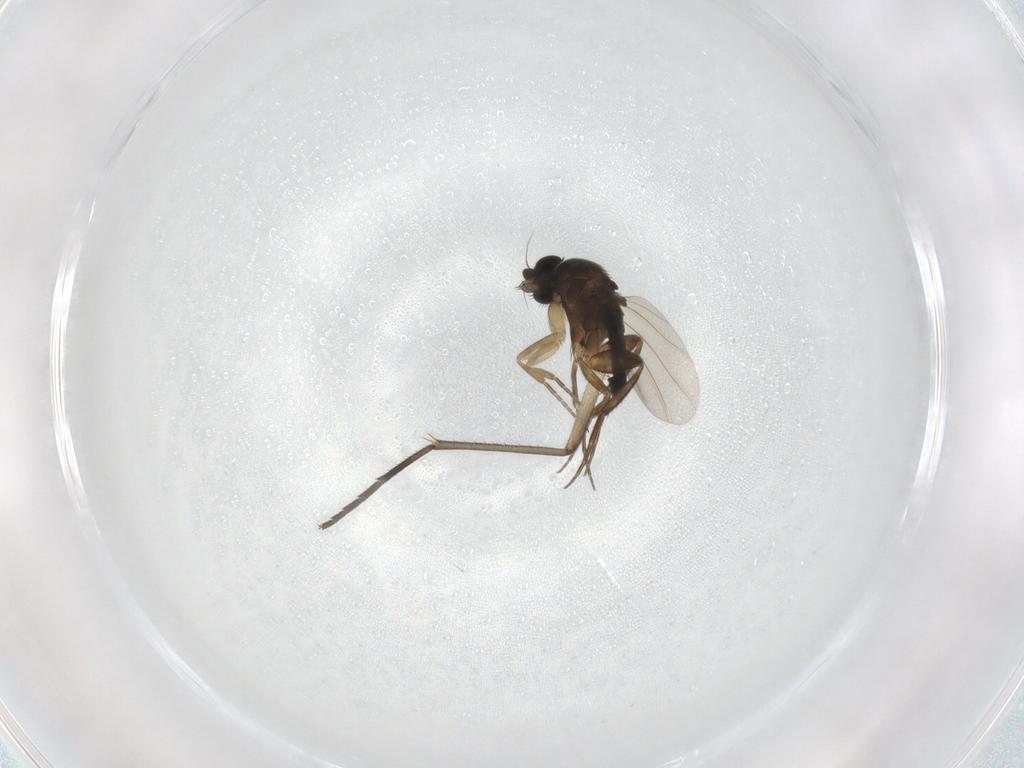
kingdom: Animalia
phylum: Arthropoda
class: Insecta
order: Diptera
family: Phoridae
